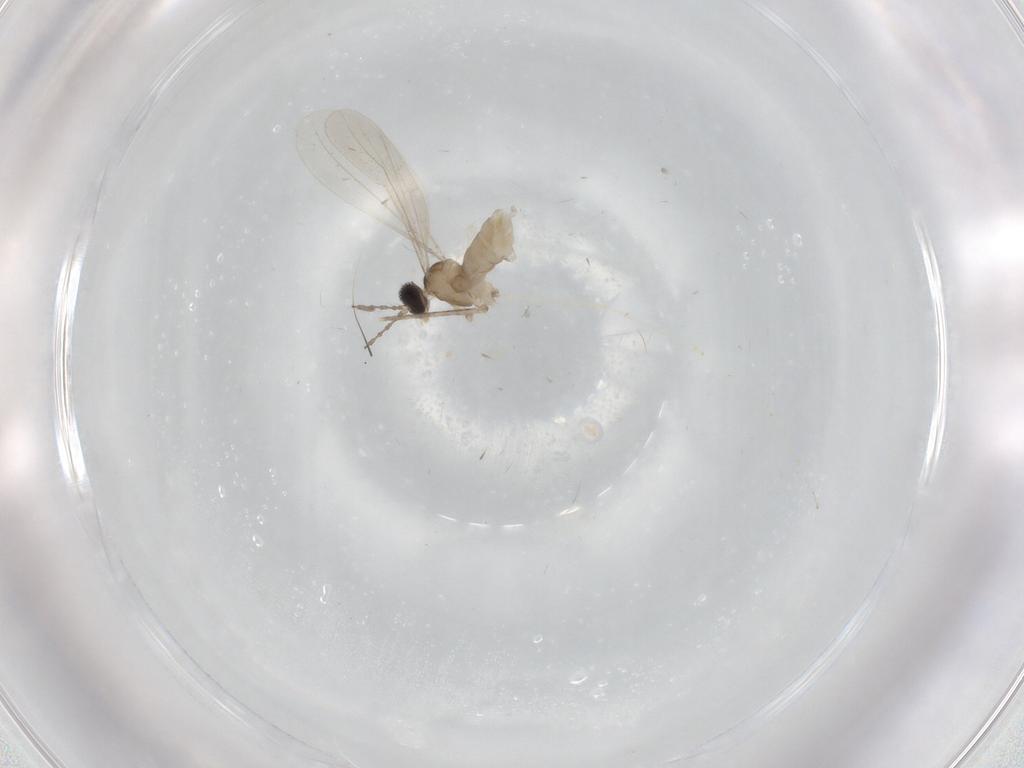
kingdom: Animalia
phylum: Arthropoda
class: Insecta
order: Diptera
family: Cecidomyiidae
